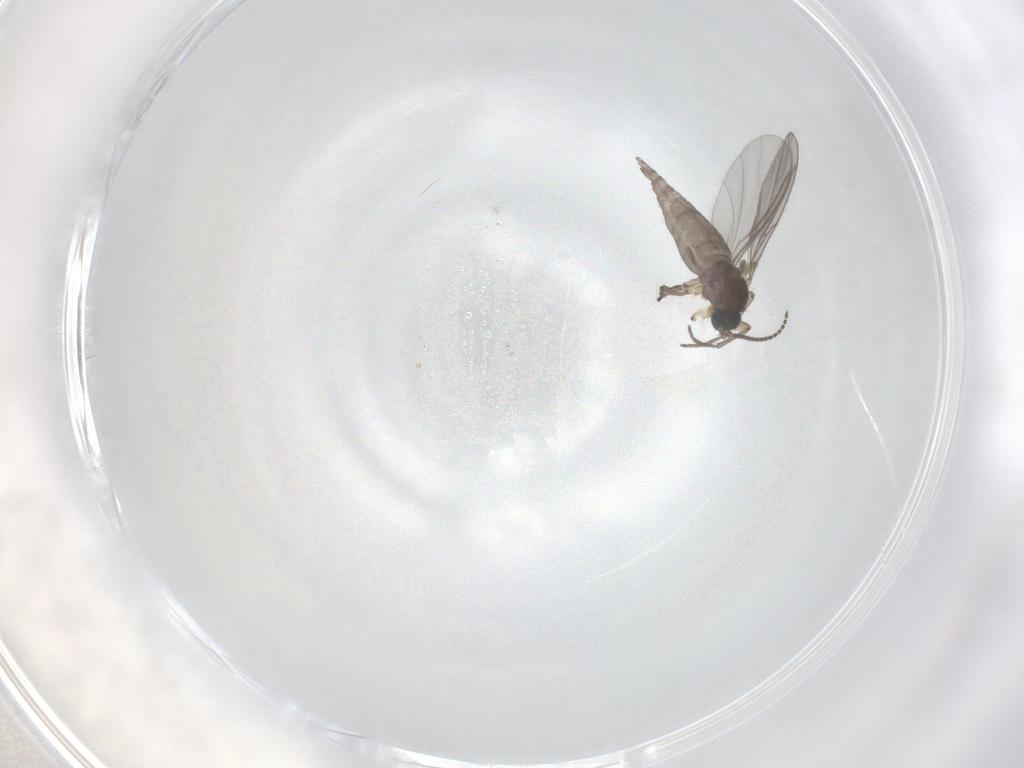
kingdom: Animalia
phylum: Arthropoda
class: Insecta
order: Diptera
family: Sciaridae
